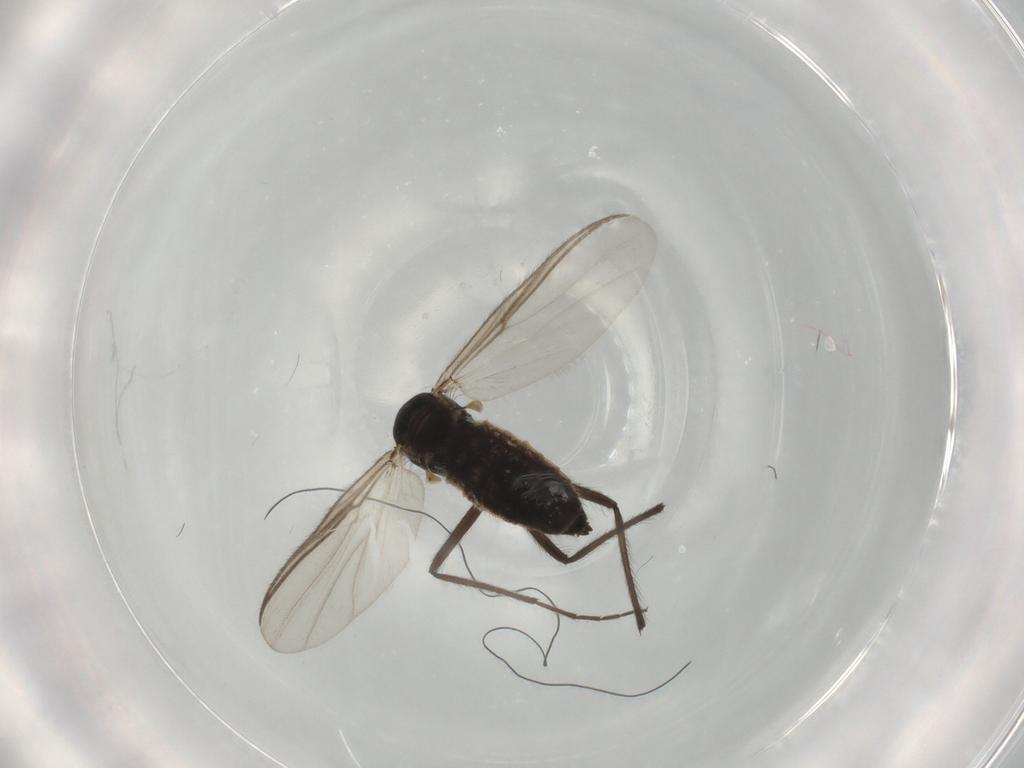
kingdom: Animalia
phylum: Arthropoda
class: Insecta
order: Diptera
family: Chironomidae
